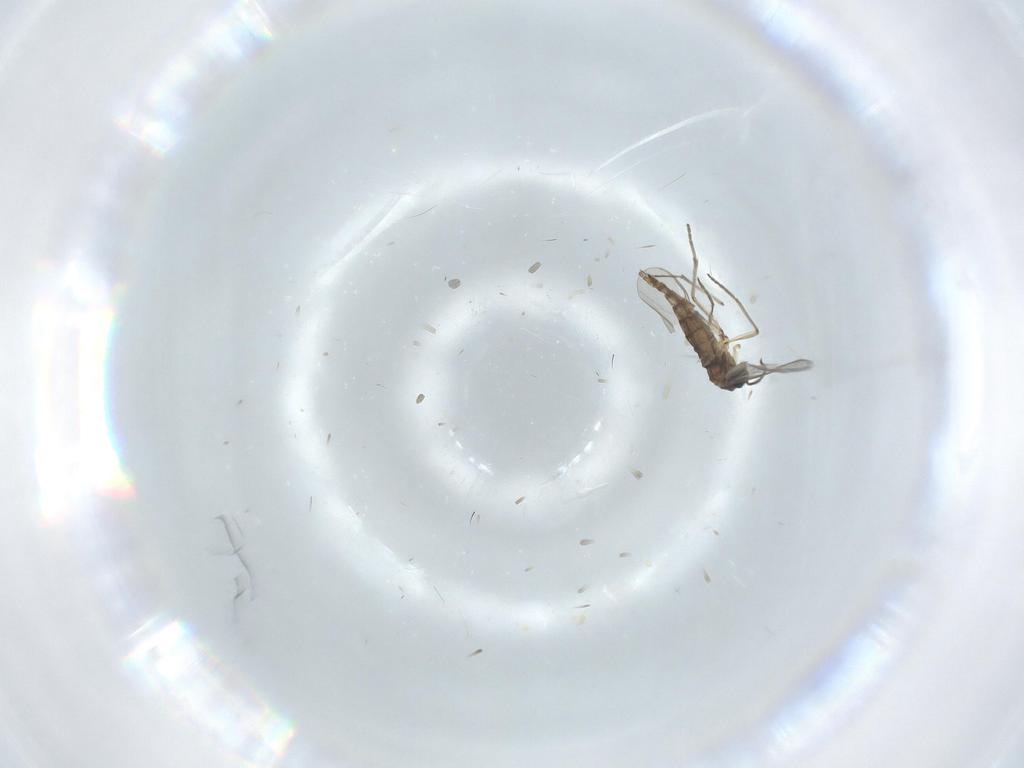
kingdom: Animalia
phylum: Arthropoda
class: Insecta
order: Diptera
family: Sciaridae
